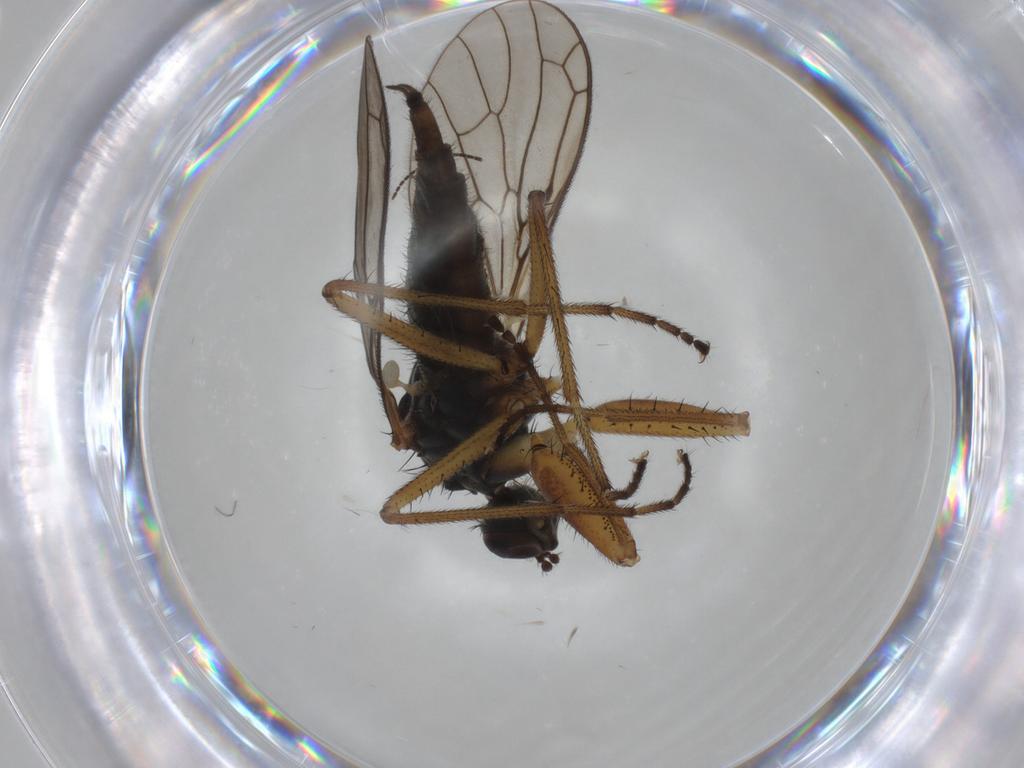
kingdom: Animalia
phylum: Arthropoda
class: Insecta
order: Diptera
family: Empididae
